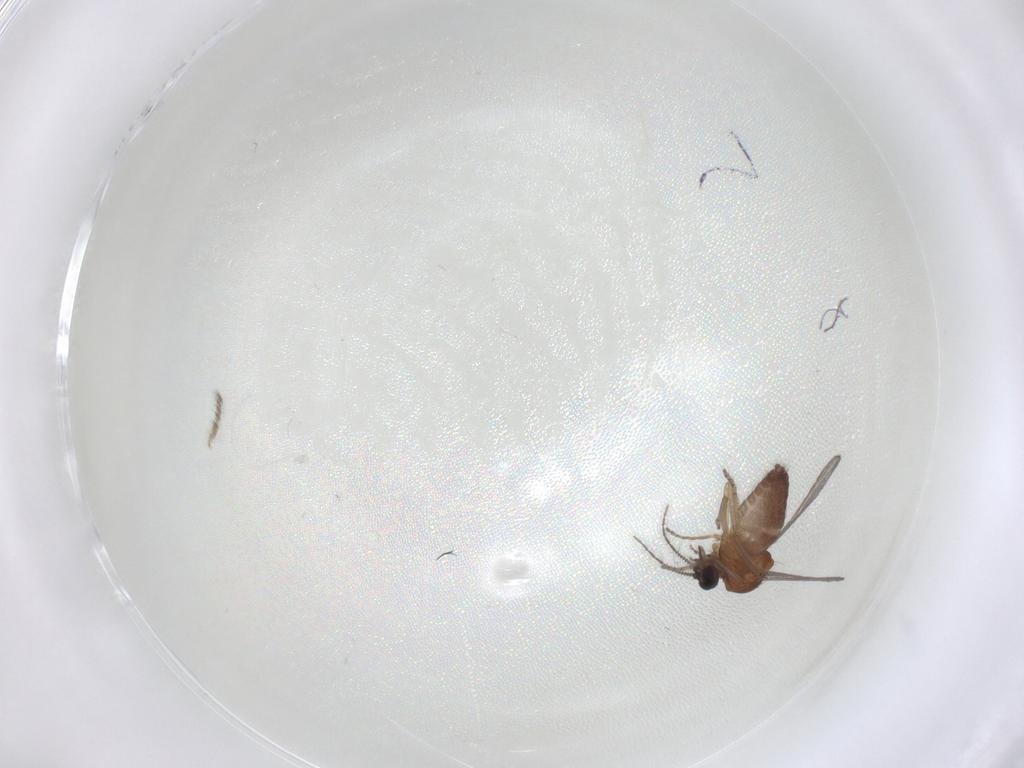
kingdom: Animalia
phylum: Arthropoda
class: Insecta
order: Diptera
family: Ceratopogonidae
